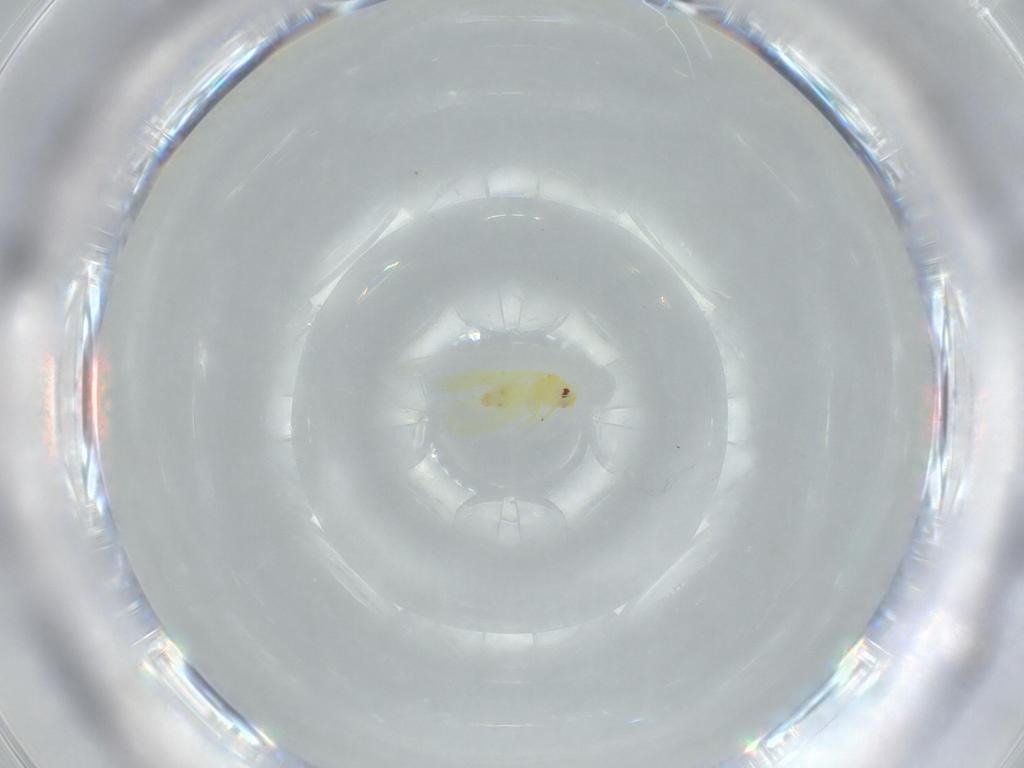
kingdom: Animalia
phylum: Arthropoda
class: Insecta
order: Hemiptera
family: Aleyrodidae
